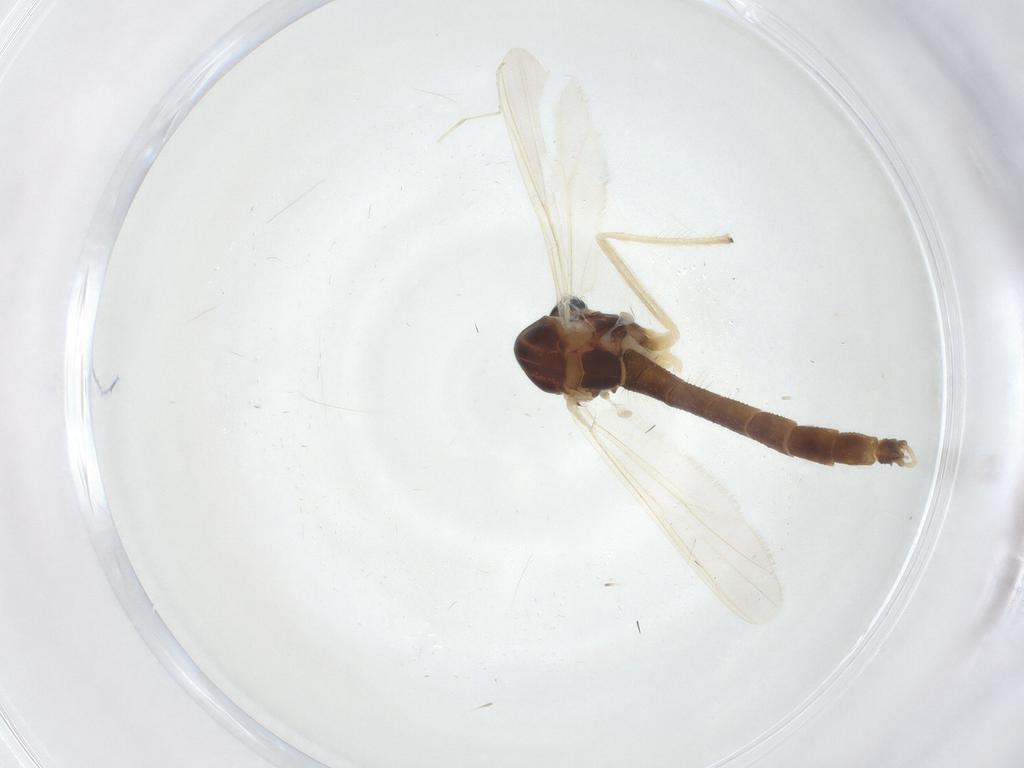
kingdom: Animalia
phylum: Arthropoda
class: Insecta
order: Diptera
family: Chironomidae
